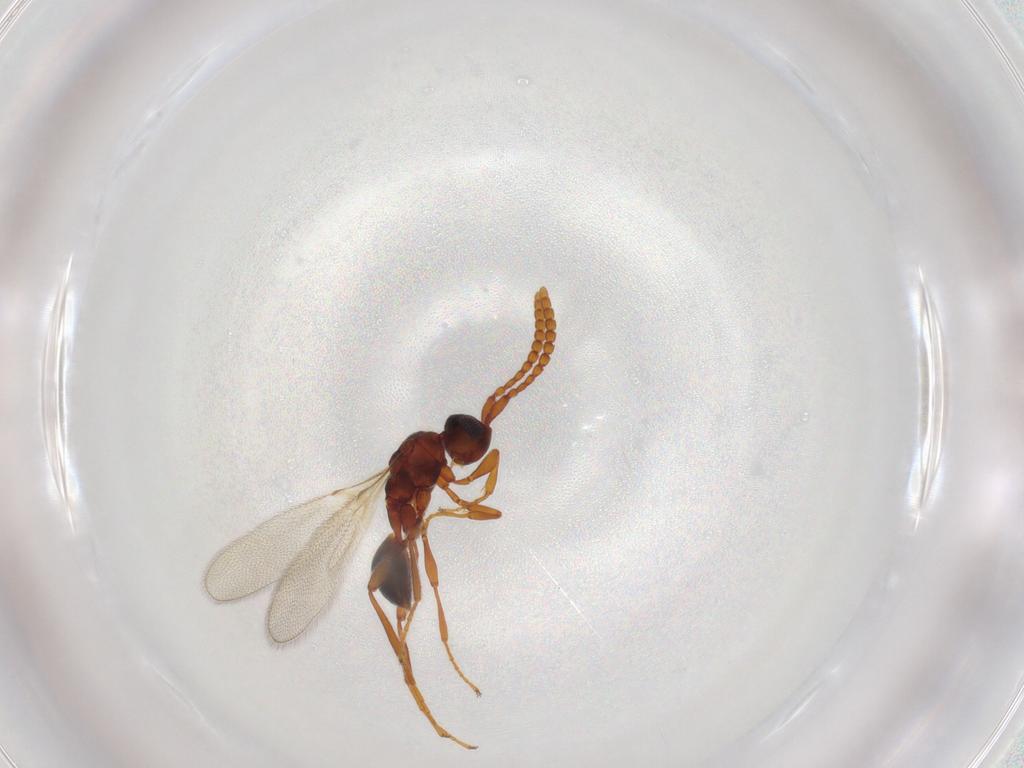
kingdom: Animalia
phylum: Arthropoda
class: Insecta
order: Hymenoptera
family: Diapriidae
